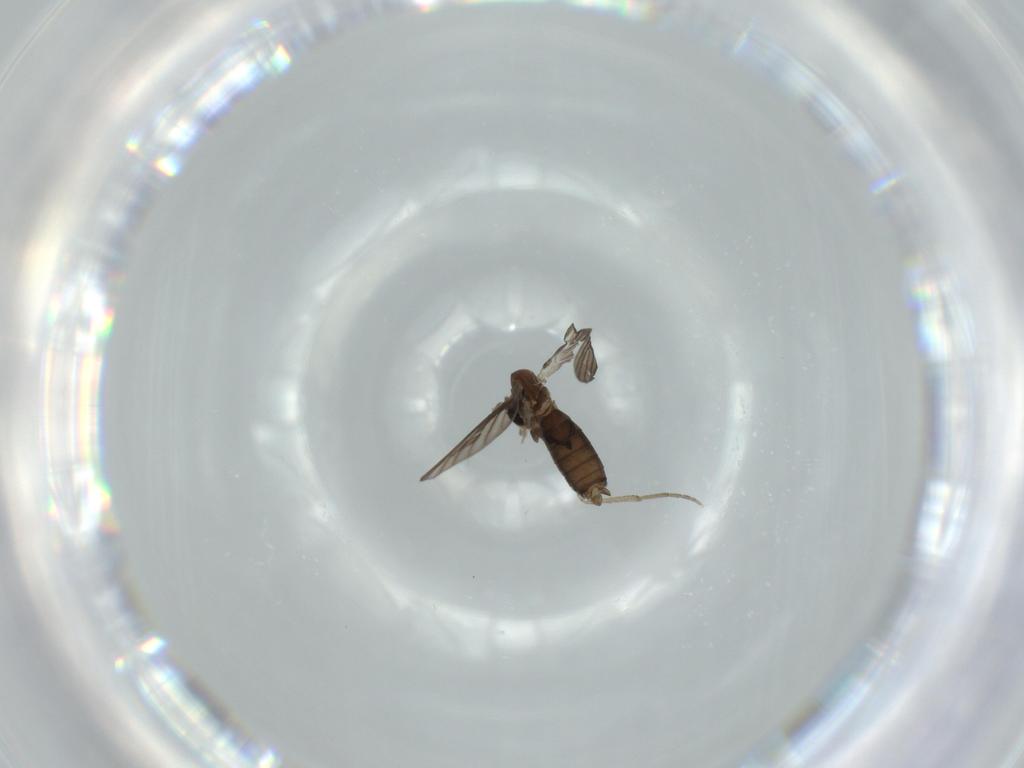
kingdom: Animalia
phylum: Arthropoda
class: Insecta
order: Diptera
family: Psychodidae
